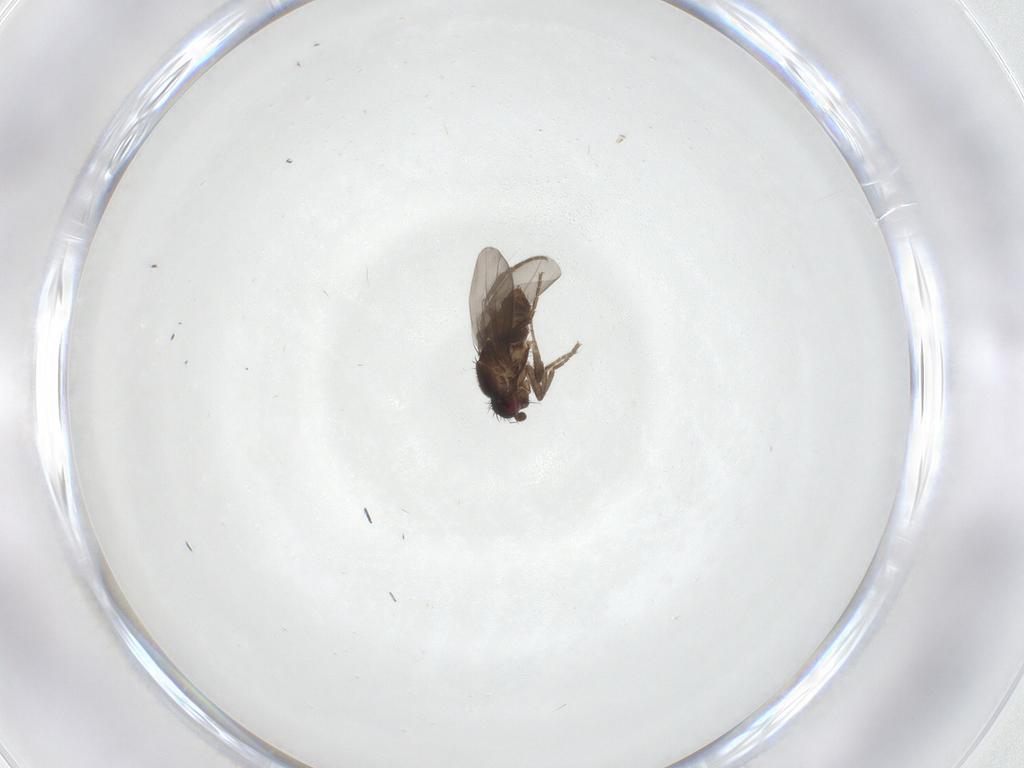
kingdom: Animalia
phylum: Arthropoda
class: Insecta
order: Diptera
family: Sphaeroceridae
